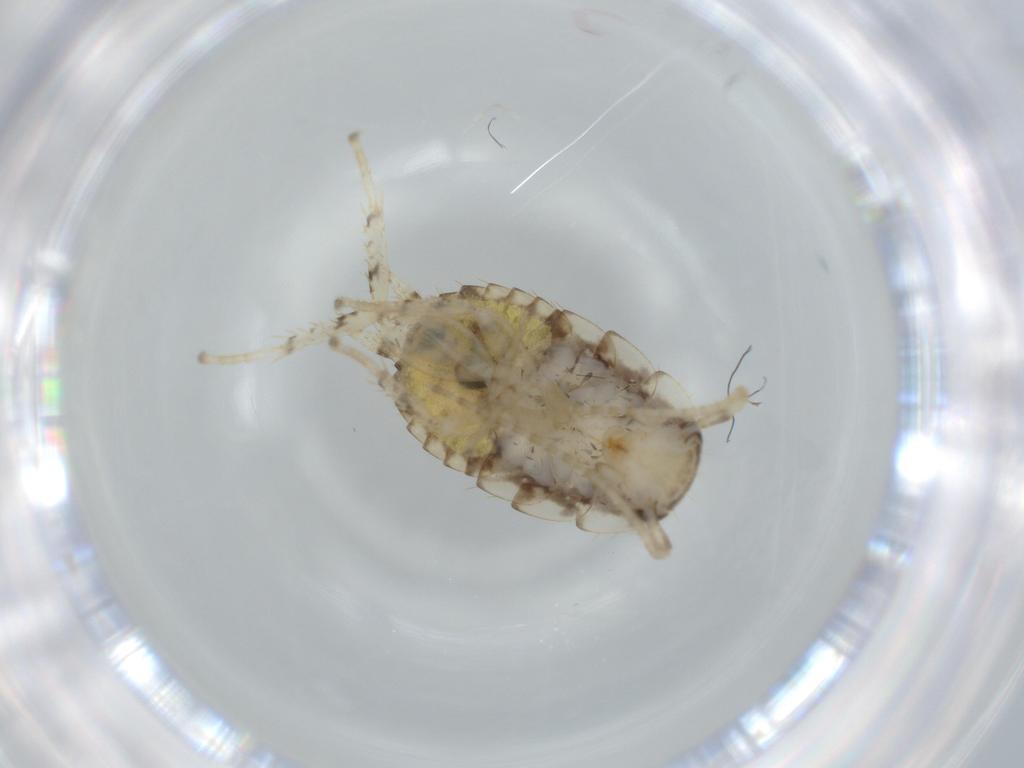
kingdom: Animalia
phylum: Arthropoda
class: Insecta
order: Blattodea
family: Ectobiidae
